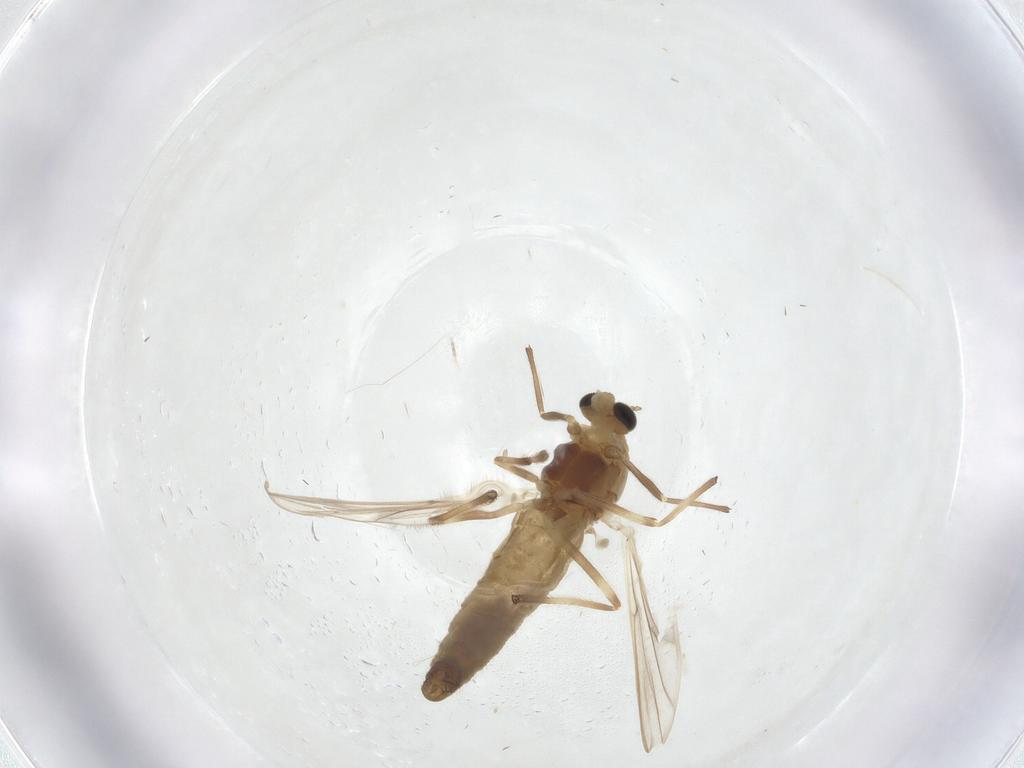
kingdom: Animalia
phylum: Arthropoda
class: Insecta
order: Diptera
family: Chironomidae
